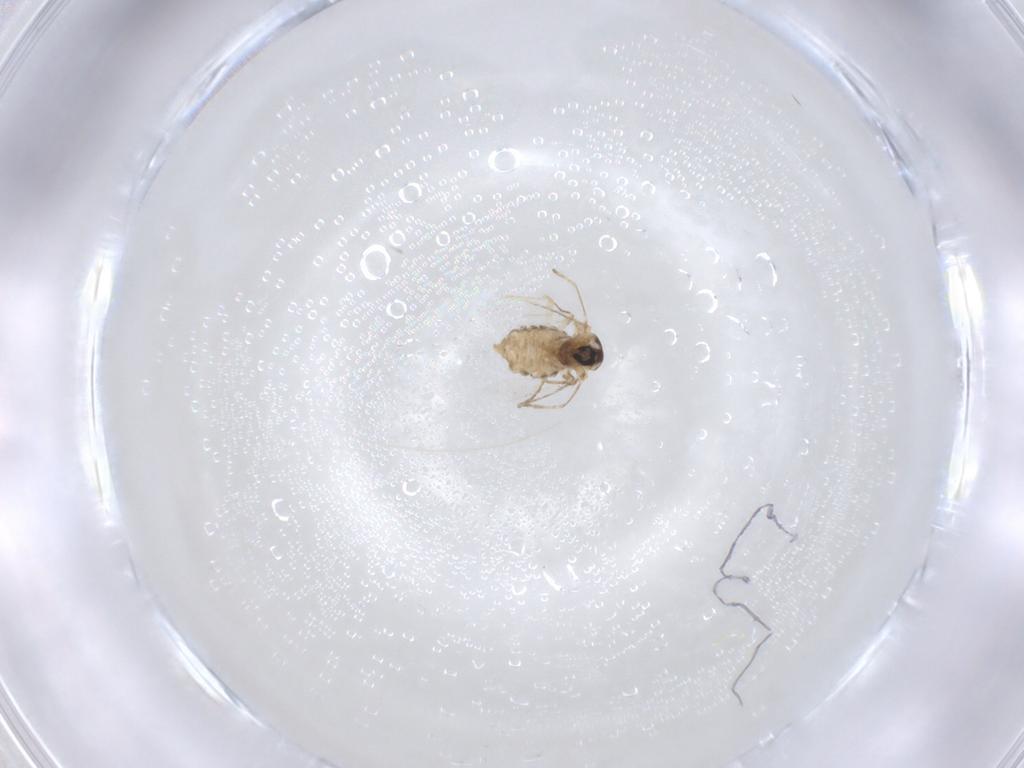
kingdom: Animalia
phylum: Arthropoda
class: Insecta
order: Diptera
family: Cecidomyiidae
